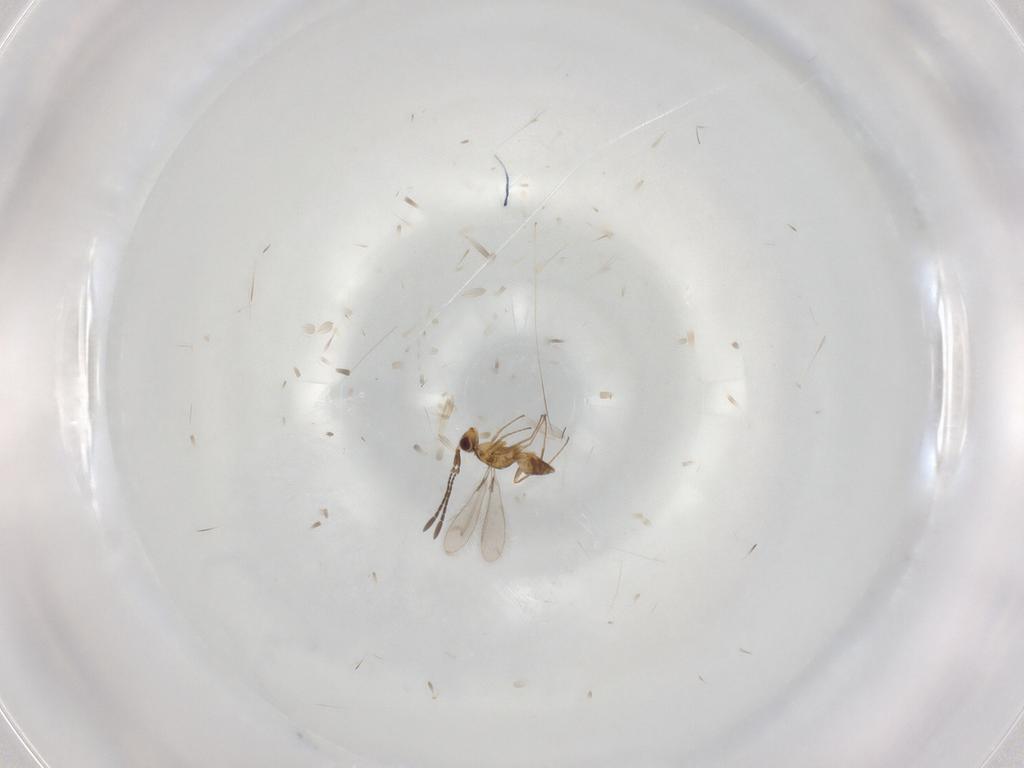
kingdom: Animalia
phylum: Arthropoda
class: Insecta
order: Hymenoptera
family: Mymaridae
